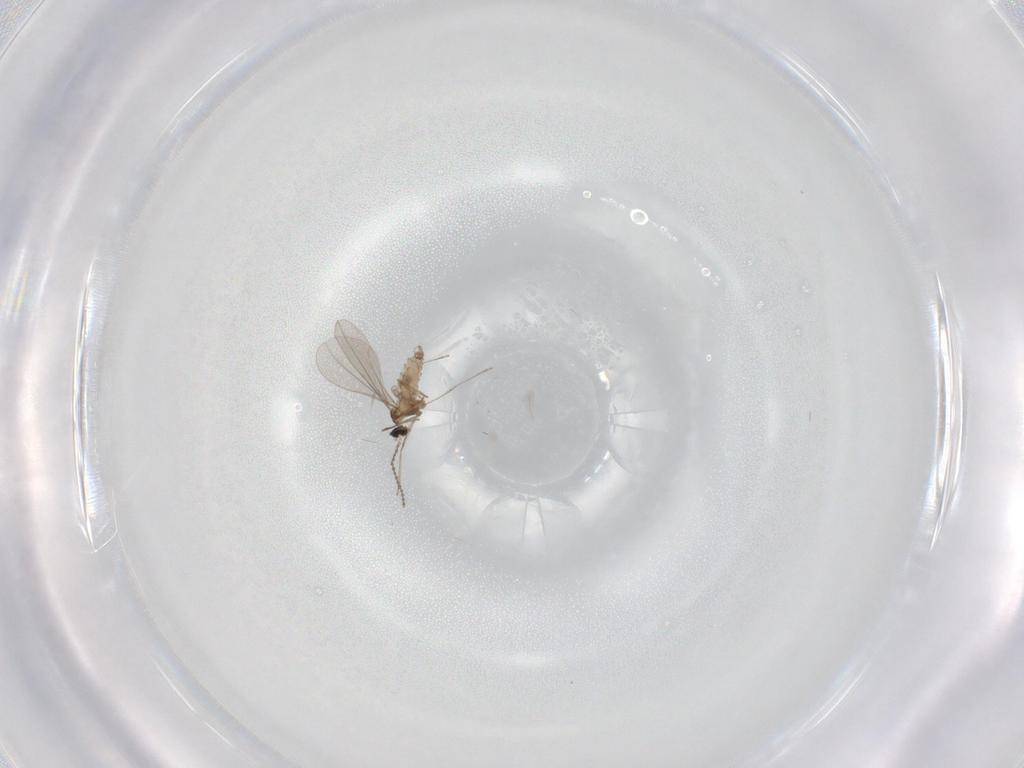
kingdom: Animalia
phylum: Arthropoda
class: Insecta
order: Diptera
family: Cecidomyiidae
